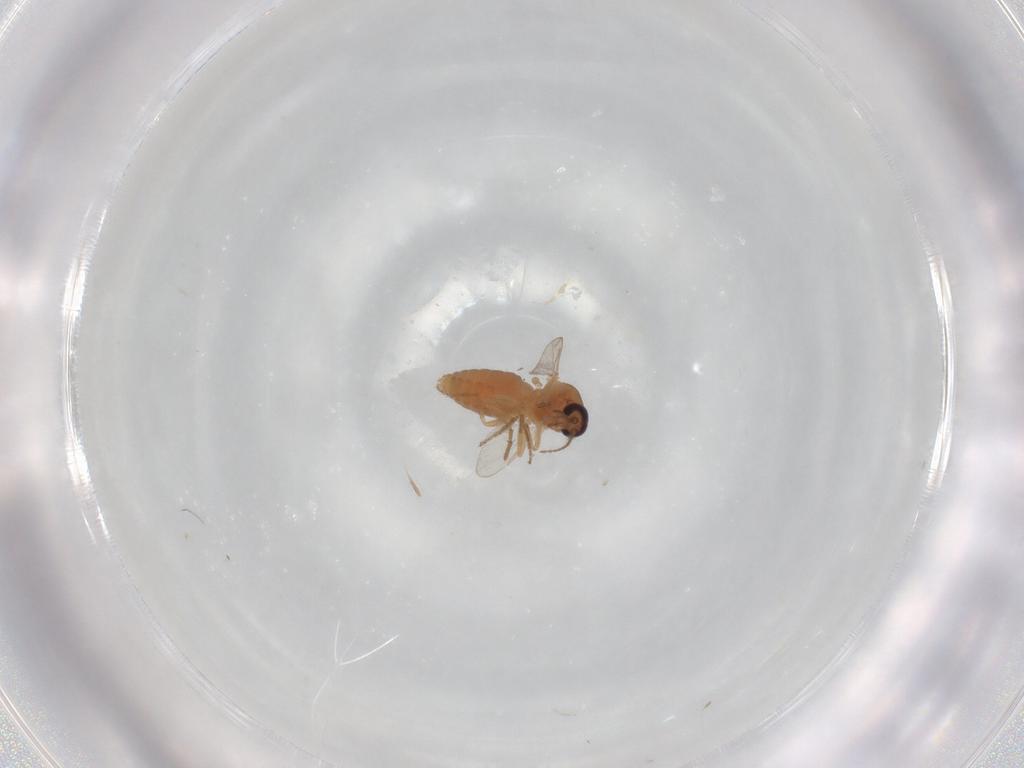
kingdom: Animalia
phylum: Arthropoda
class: Insecta
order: Diptera
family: Ceratopogonidae
